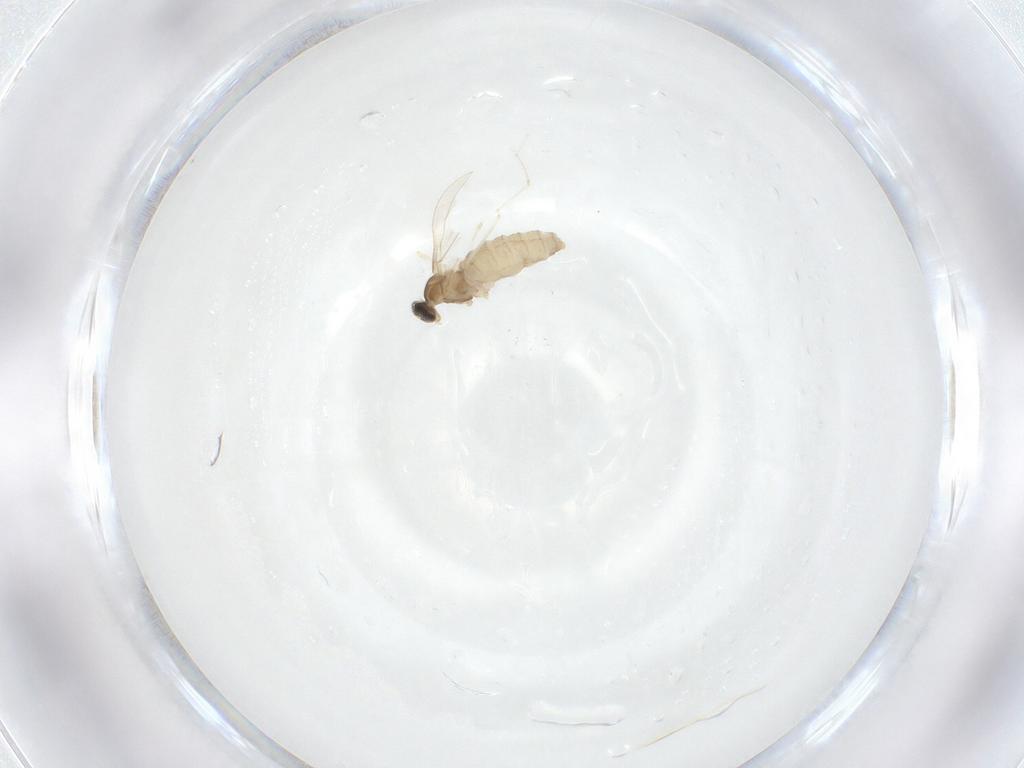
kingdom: Animalia
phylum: Arthropoda
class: Insecta
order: Diptera
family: Cecidomyiidae
